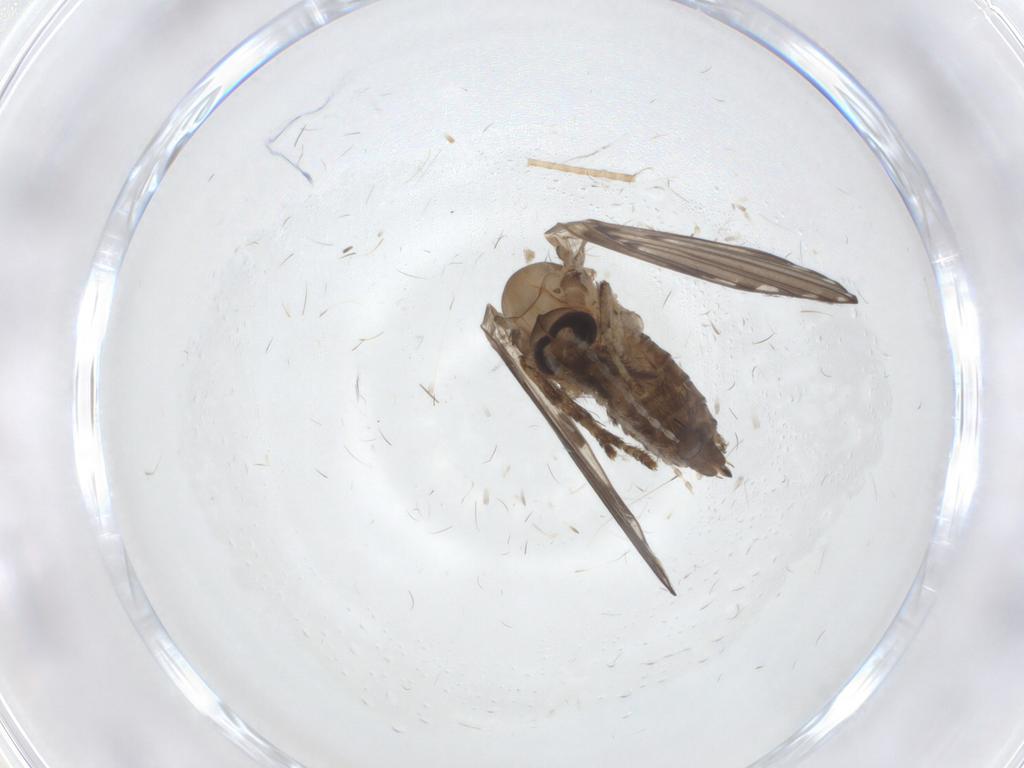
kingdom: Animalia
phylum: Arthropoda
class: Insecta
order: Diptera
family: Psychodidae
